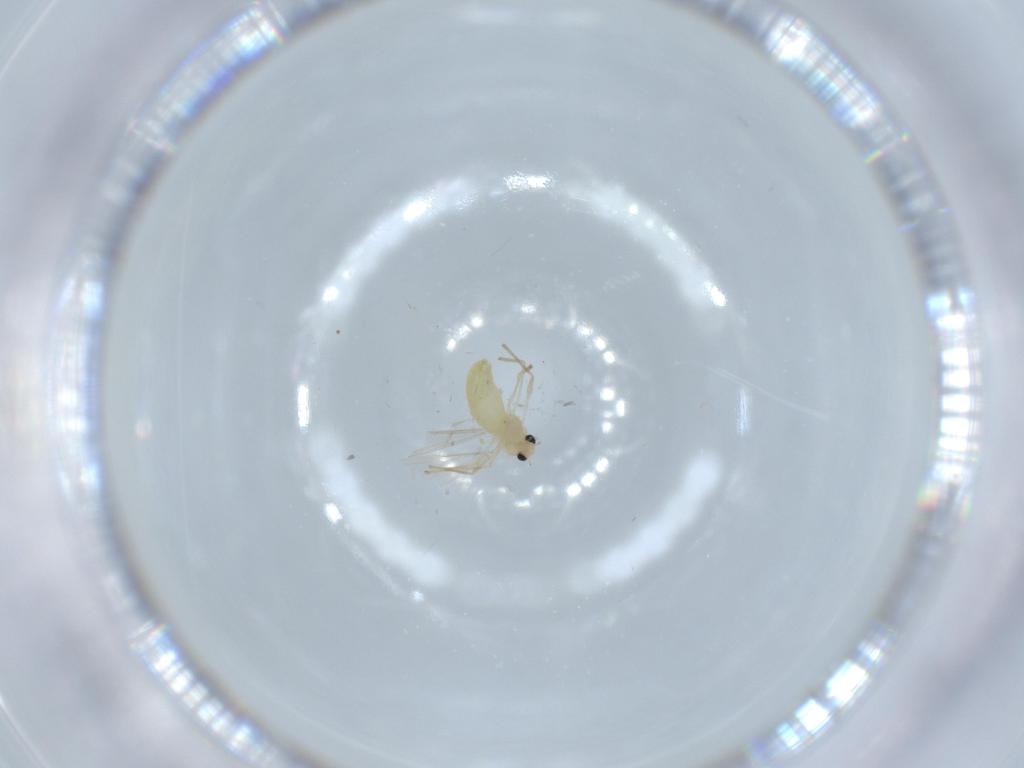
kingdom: Animalia
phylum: Arthropoda
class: Insecta
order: Diptera
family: Chironomidae
